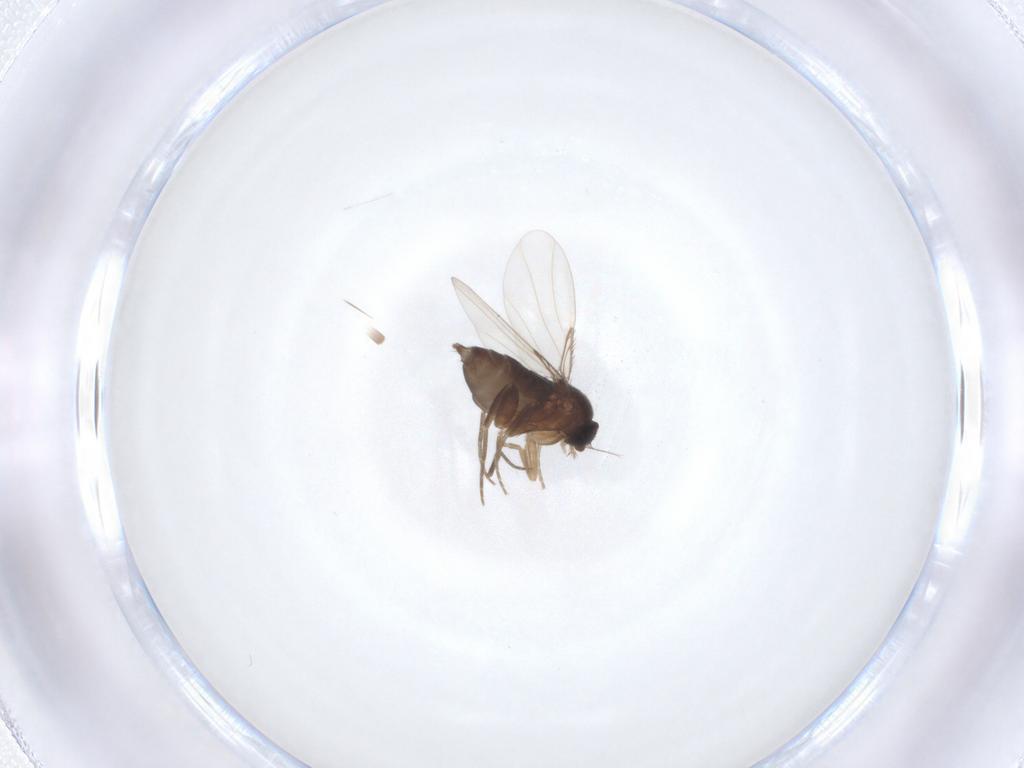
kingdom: Animalia
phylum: Arthropoda
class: Insecta
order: Diptera
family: Phoridae
